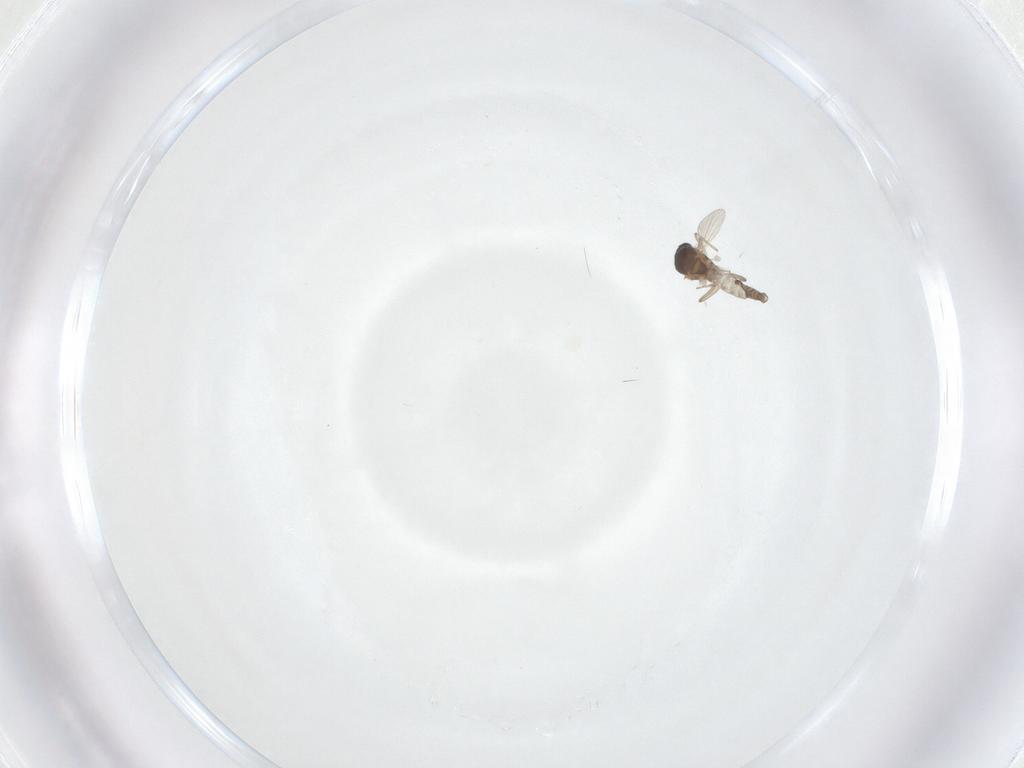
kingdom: Animalia
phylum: Arthropoda
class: Insecta
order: Diptera
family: Ceratopogonidae
